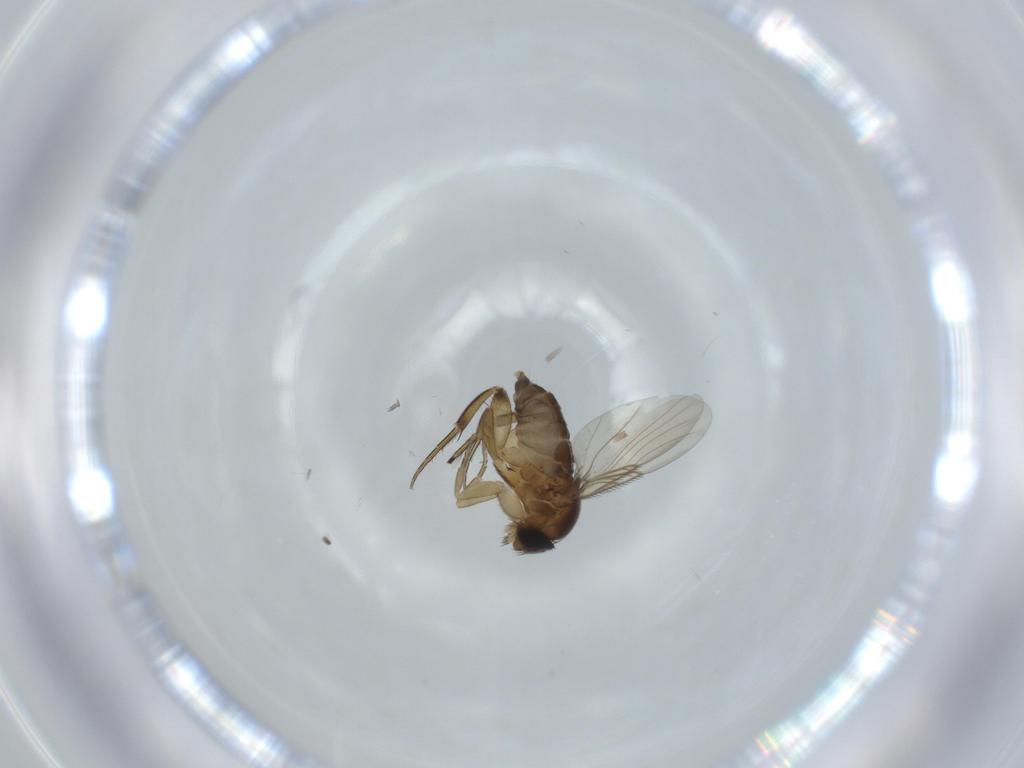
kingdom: Animalia
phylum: Arthropoda
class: Insecta
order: Diptera
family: Phoridae
